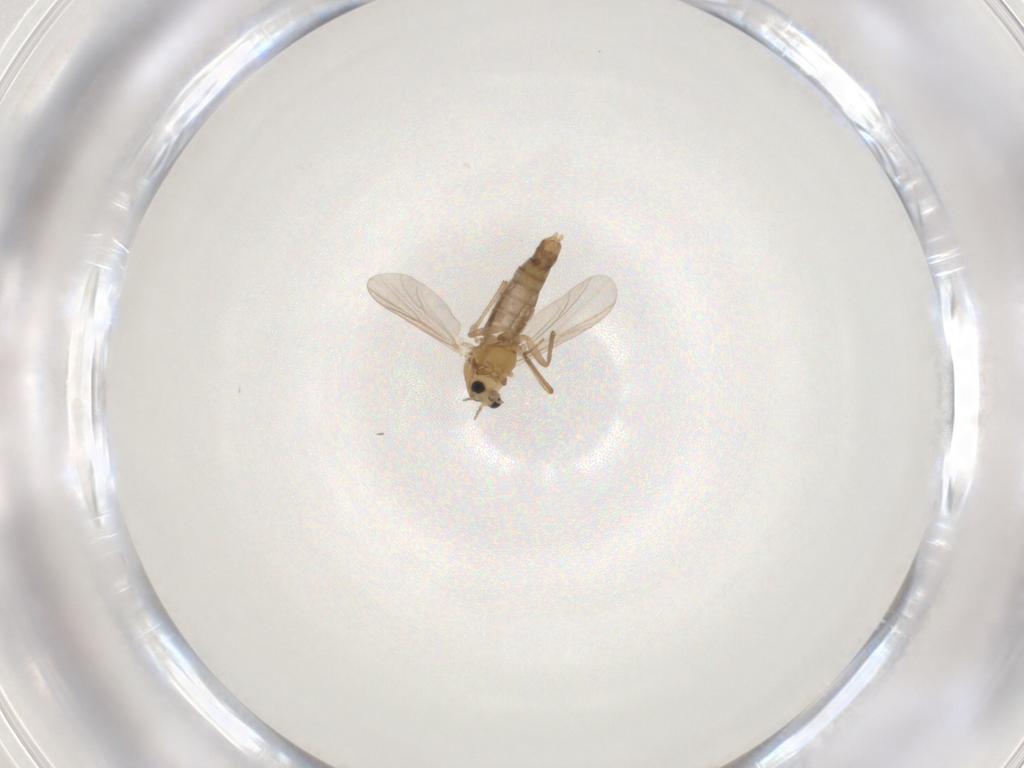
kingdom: Animalia
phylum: Arthropoda
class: Insecta
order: Diptera
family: Chironomidae
